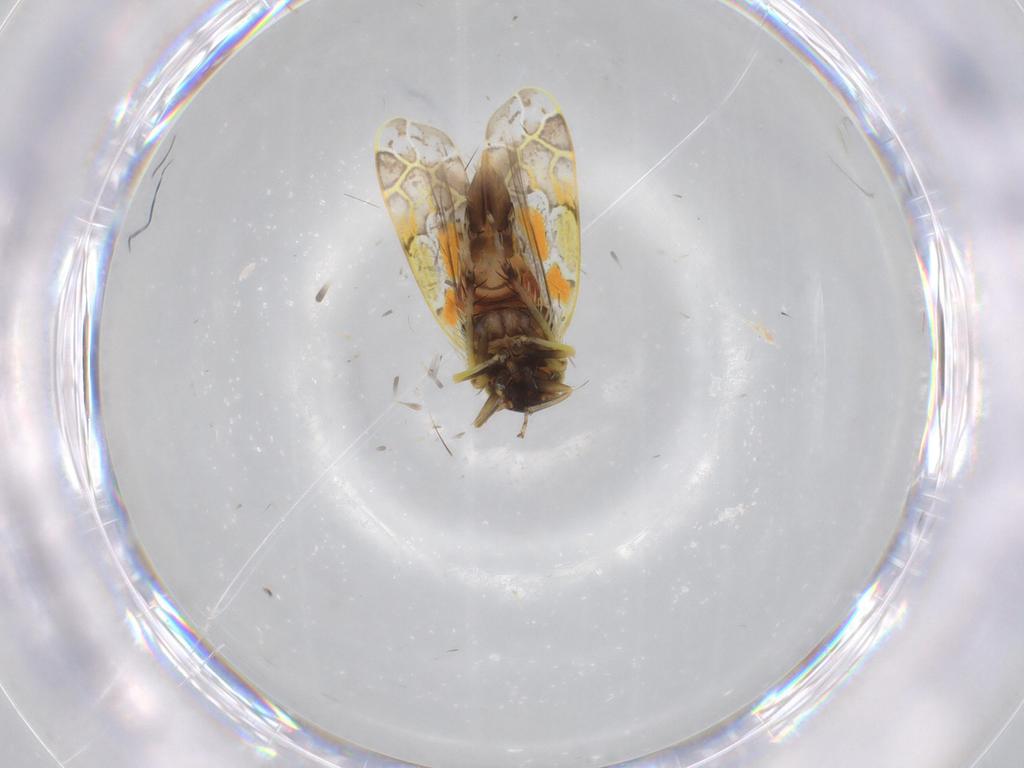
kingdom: Animalia
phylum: Arthropoda
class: Insecta
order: Hemiptera
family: Cicadellidae
